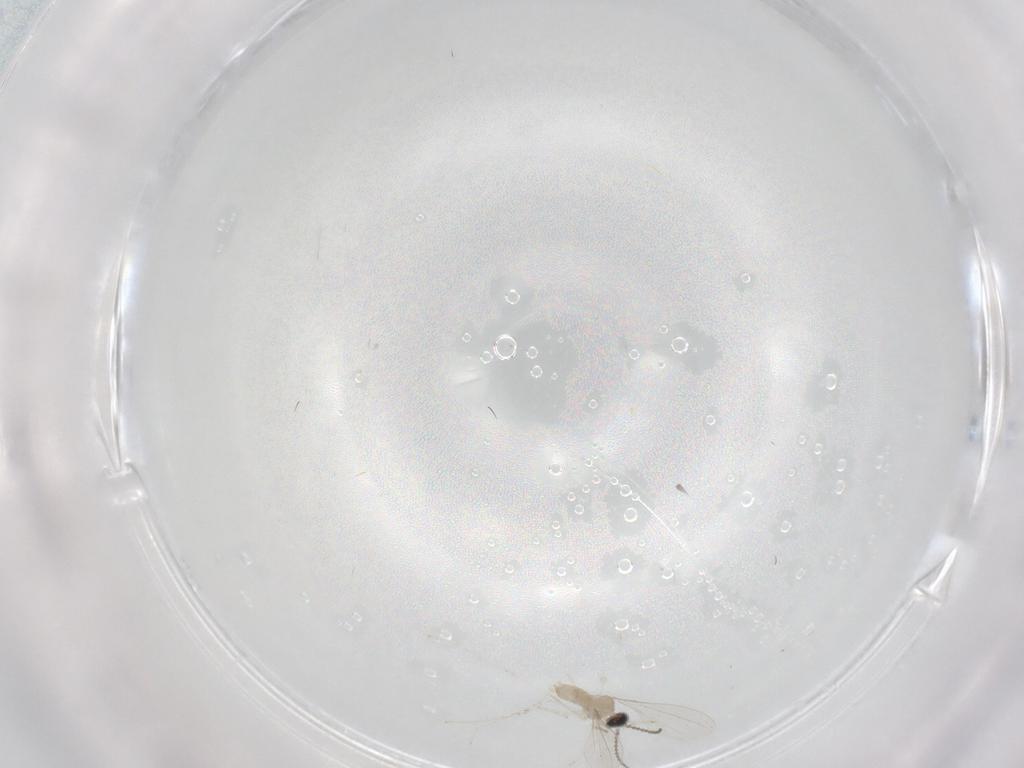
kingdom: Animalia
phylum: Arthropoda
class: Insecta
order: Diptera
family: Cecidomyiidae
